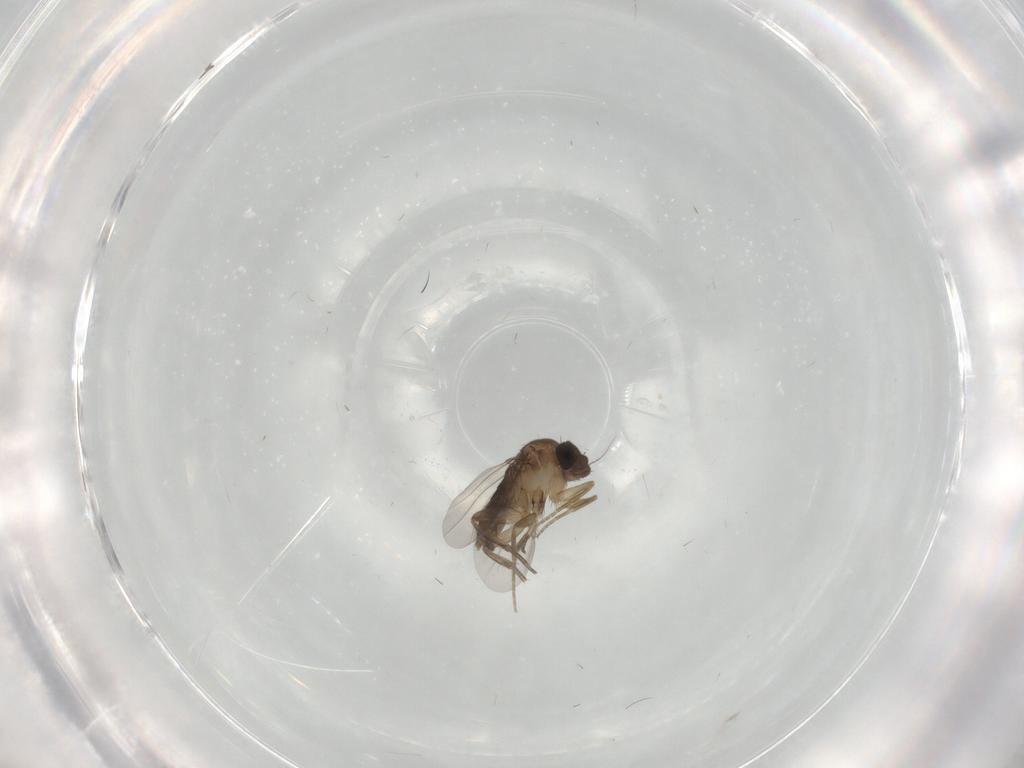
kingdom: Animalia
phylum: Arthropoda
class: Insecta
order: Diptera
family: Phoridae
